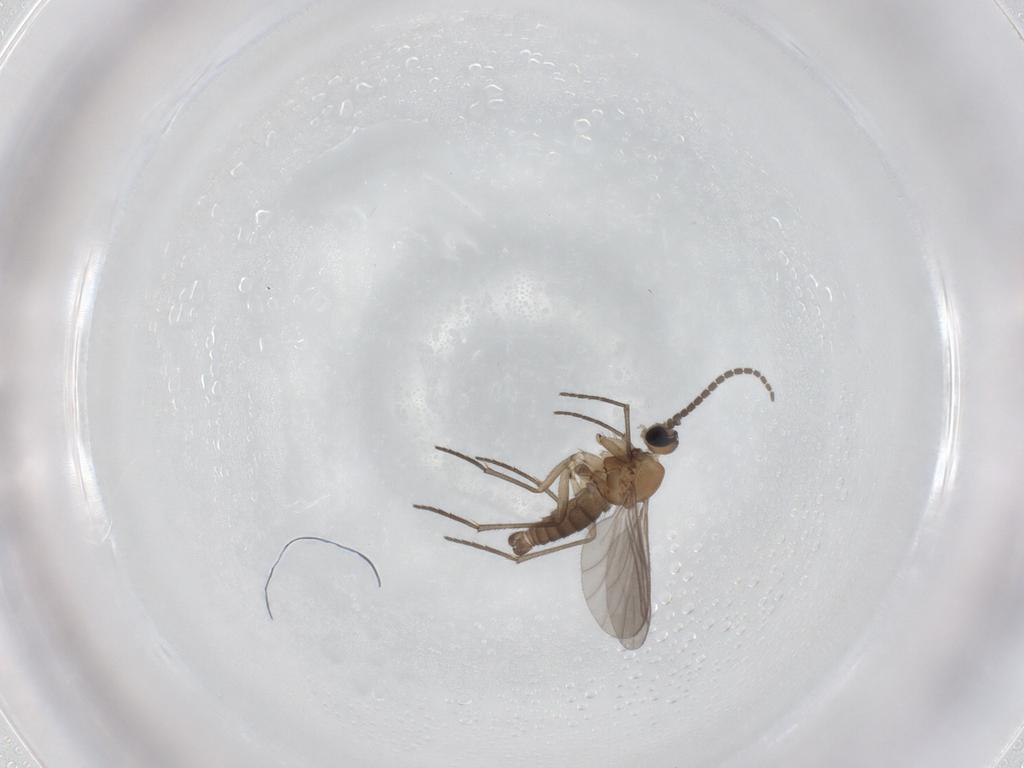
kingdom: Animalia
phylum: Arthropoda
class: Insecta
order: Diptera
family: Sciaridae
